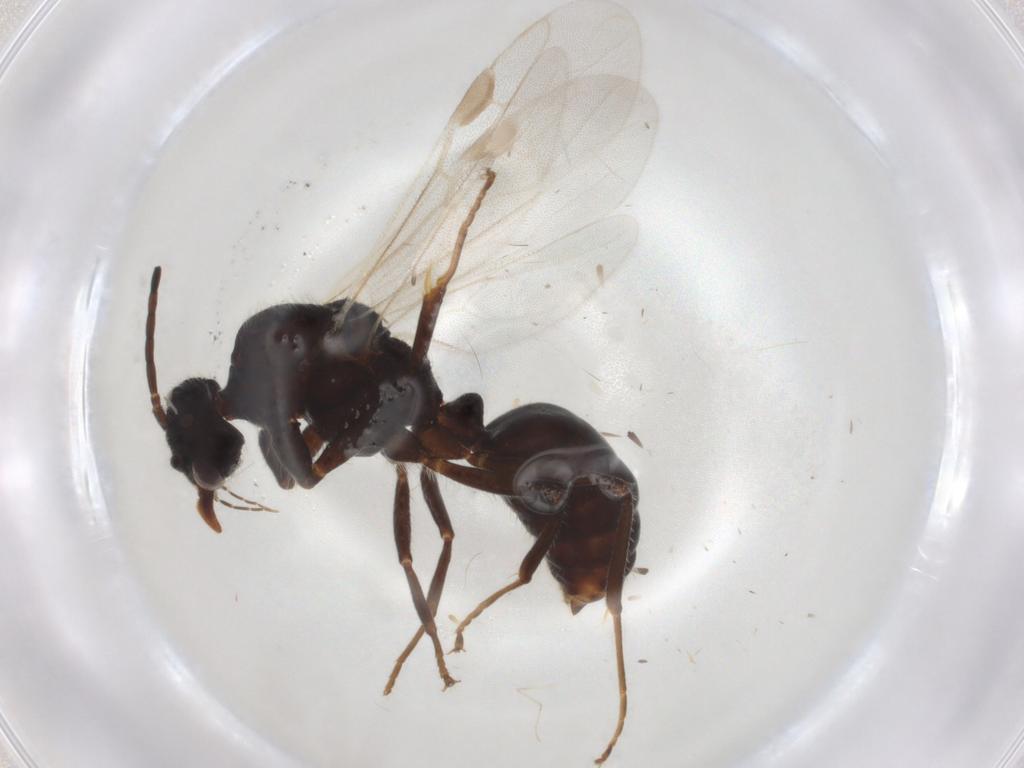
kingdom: Animalia
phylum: Arthropoda
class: Insecta
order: Hymenoptera
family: Formicidae
